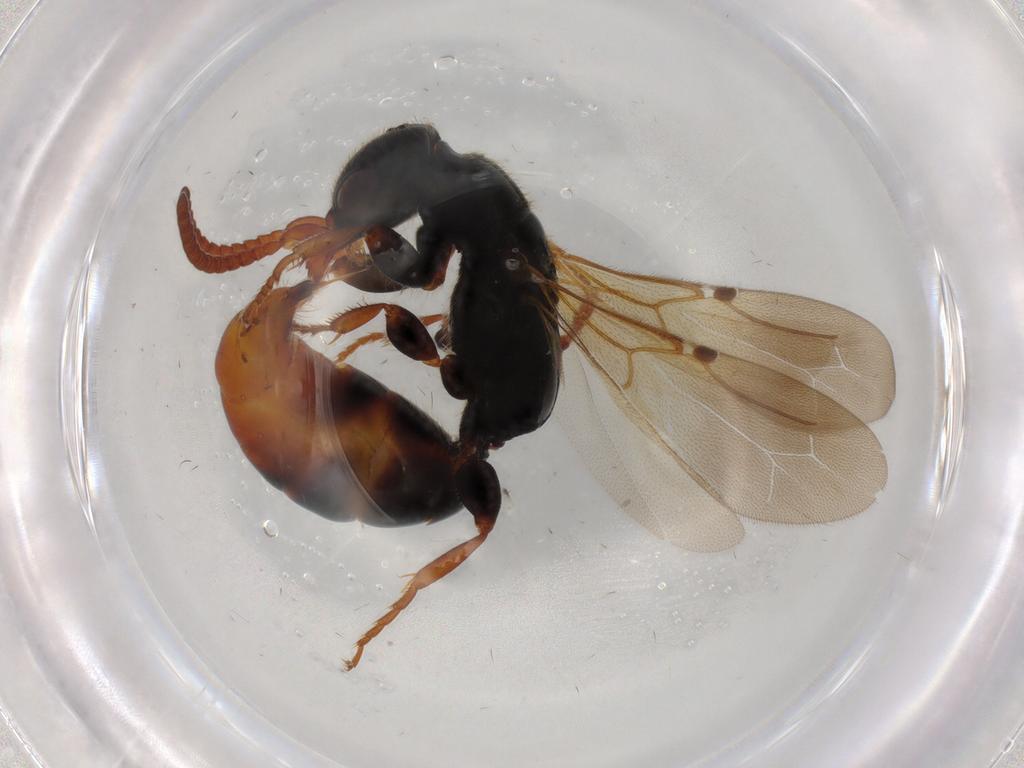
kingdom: Animalia
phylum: Arthropoda
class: Insecta
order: Hymenoptera
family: Bethylidae
